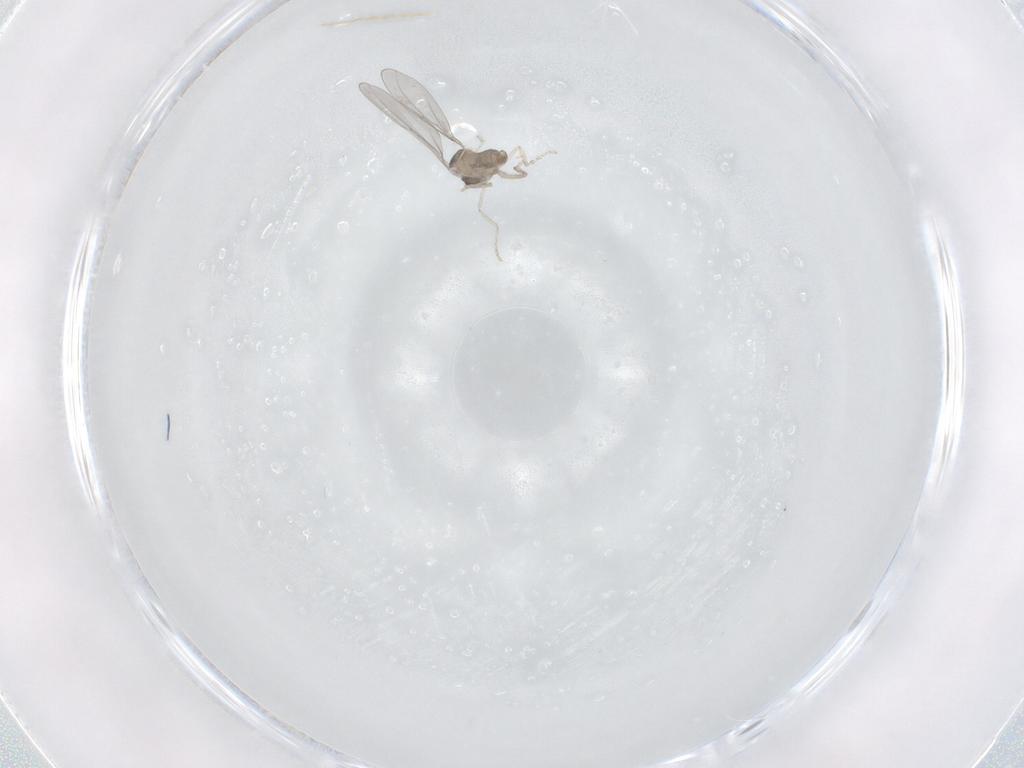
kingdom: Animalia
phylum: Arthropoda
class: Insecta
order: Diptera
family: Cecidomyiidae
